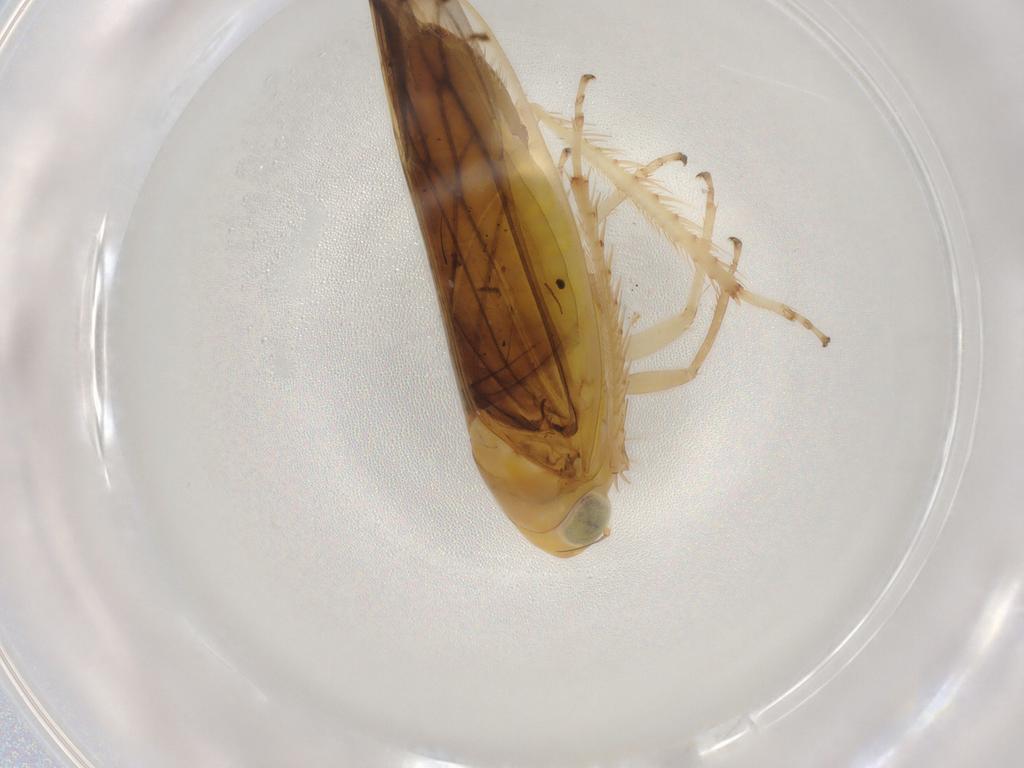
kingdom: Animalia
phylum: Arthropoda
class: Insecta
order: Hemiptera
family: Cicadellidae
